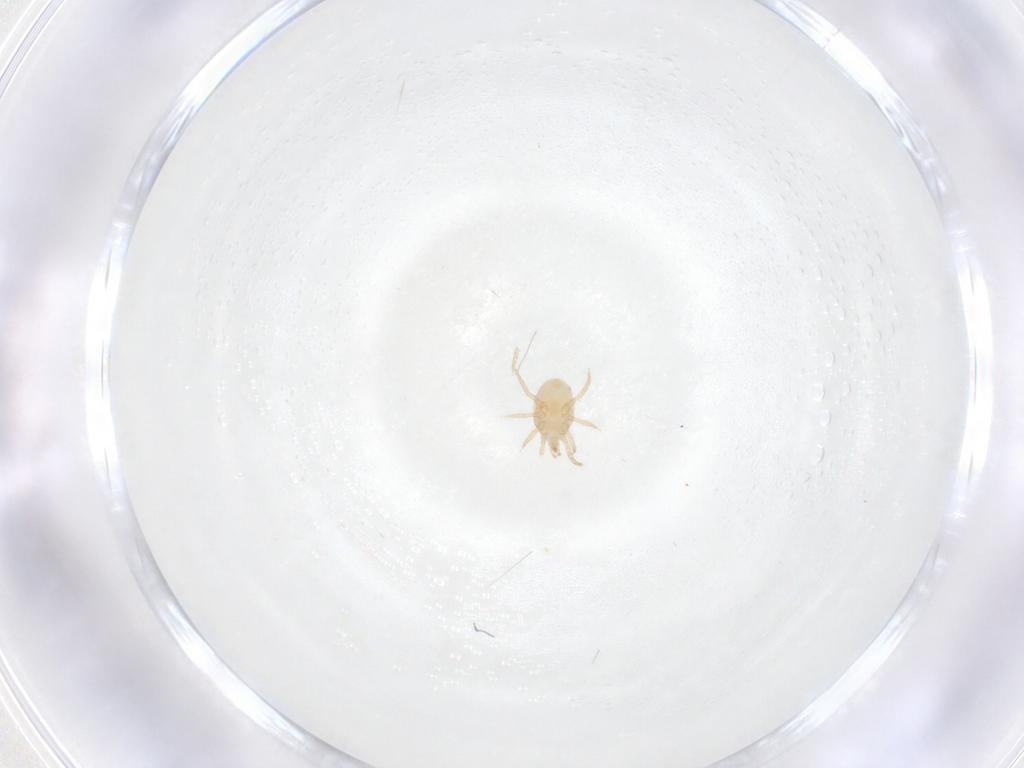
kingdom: Animalia
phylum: Arthropoda
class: Arachnida
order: Mesostigmata
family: Melicharidae
